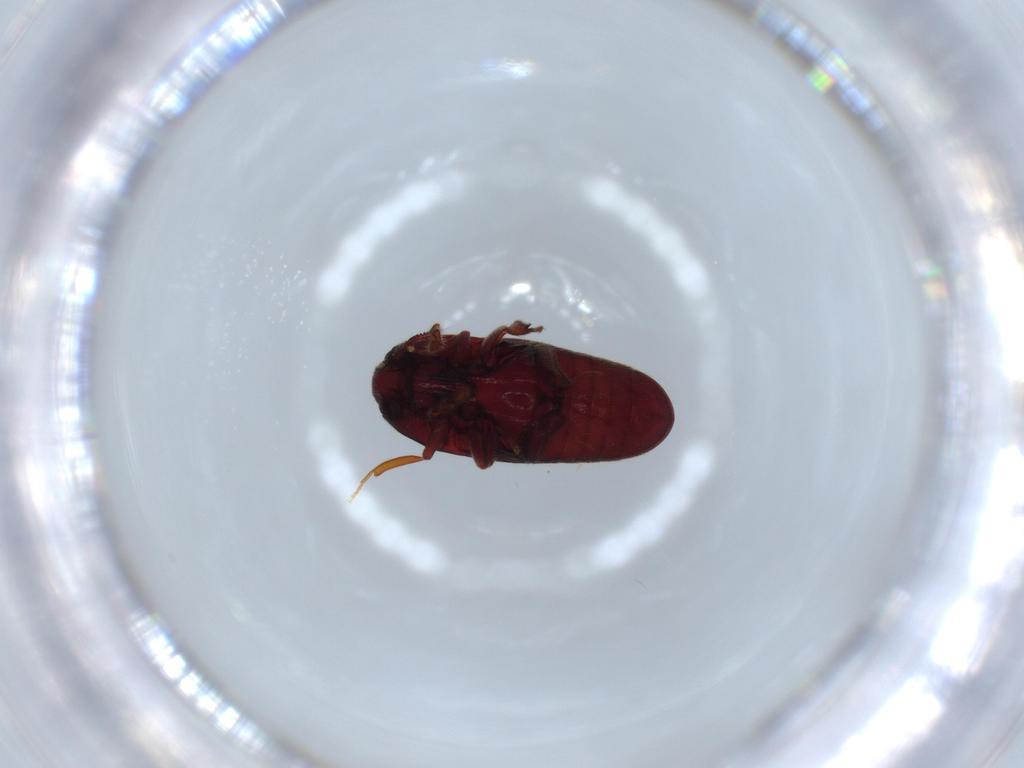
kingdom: Animalia
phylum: Arthropoda
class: Insecta
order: Coleoptera
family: Throscidae
